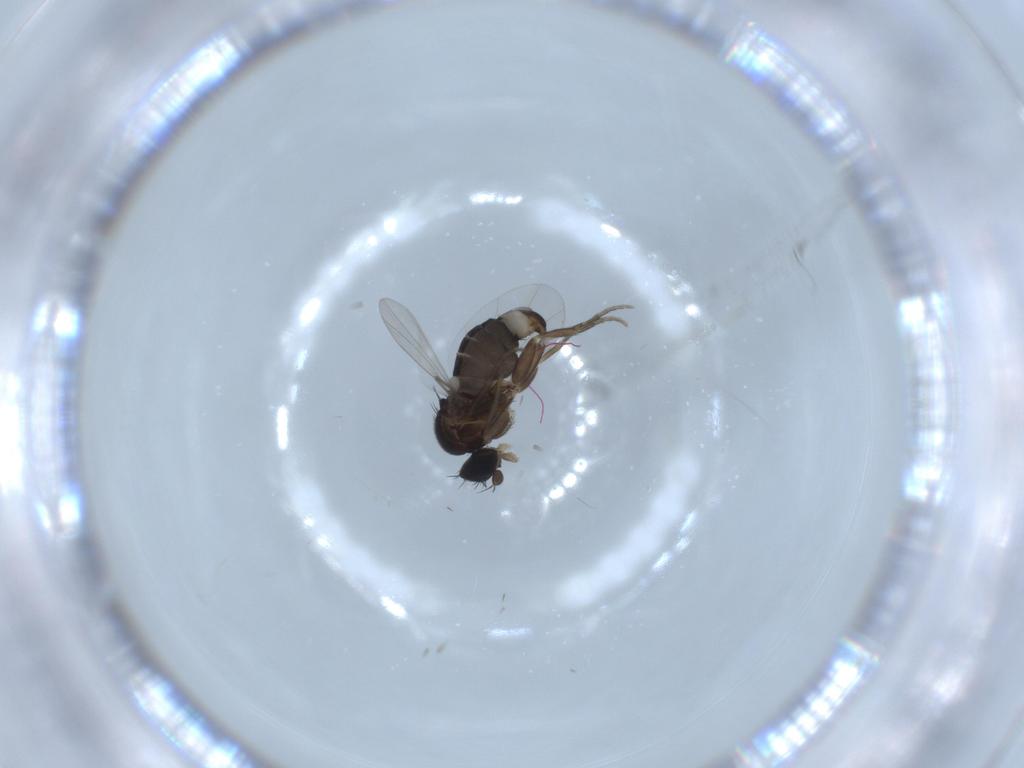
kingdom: Animalia
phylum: Arthropoda
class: Insecta
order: Diptera
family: Phoridae
